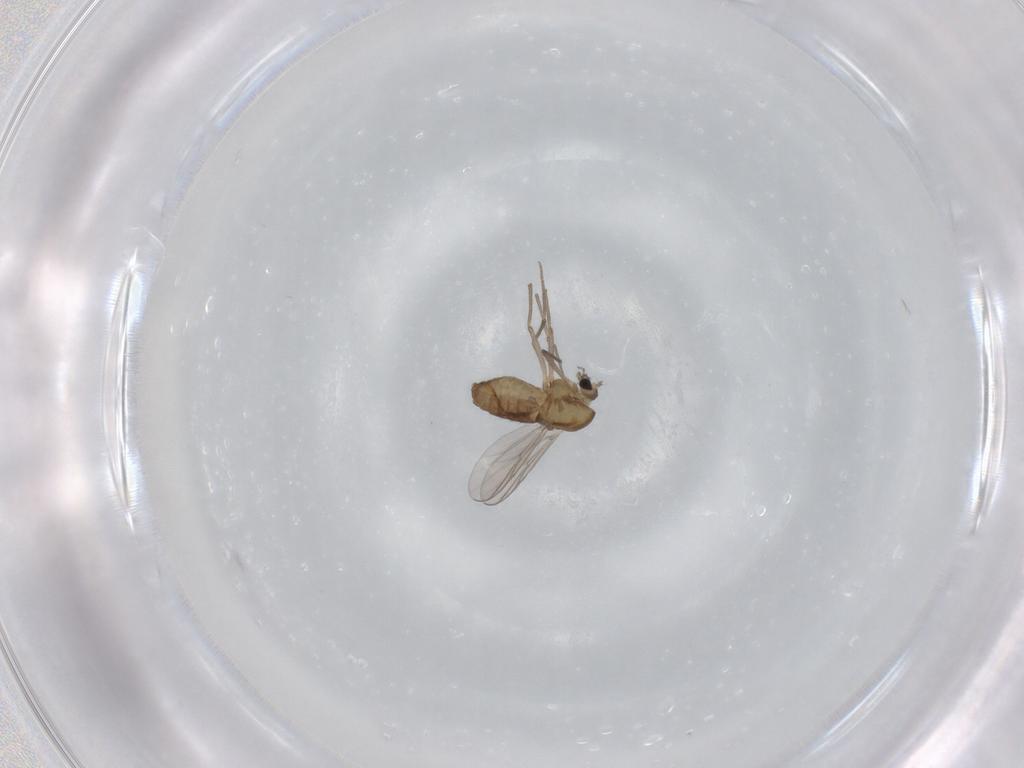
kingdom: Animalia
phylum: Arthropoda
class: Insecta
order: Diptera
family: Chironomidae
